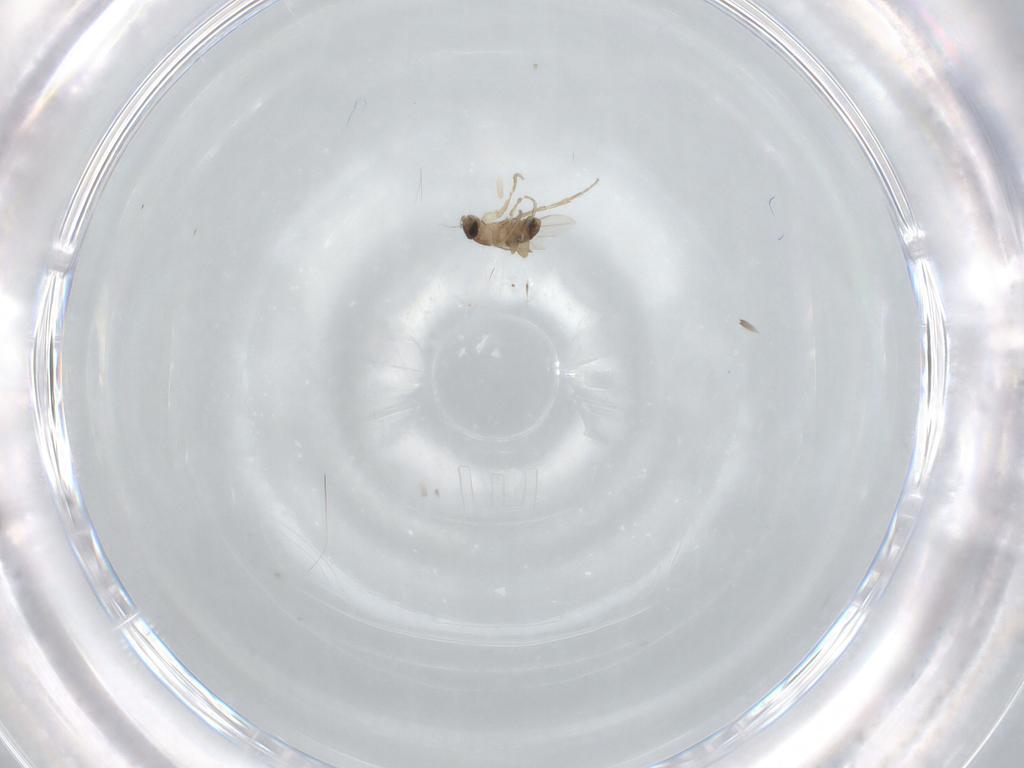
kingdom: Animalia
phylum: Arthropoda
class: Insecta
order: Diptera
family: Phoridae
